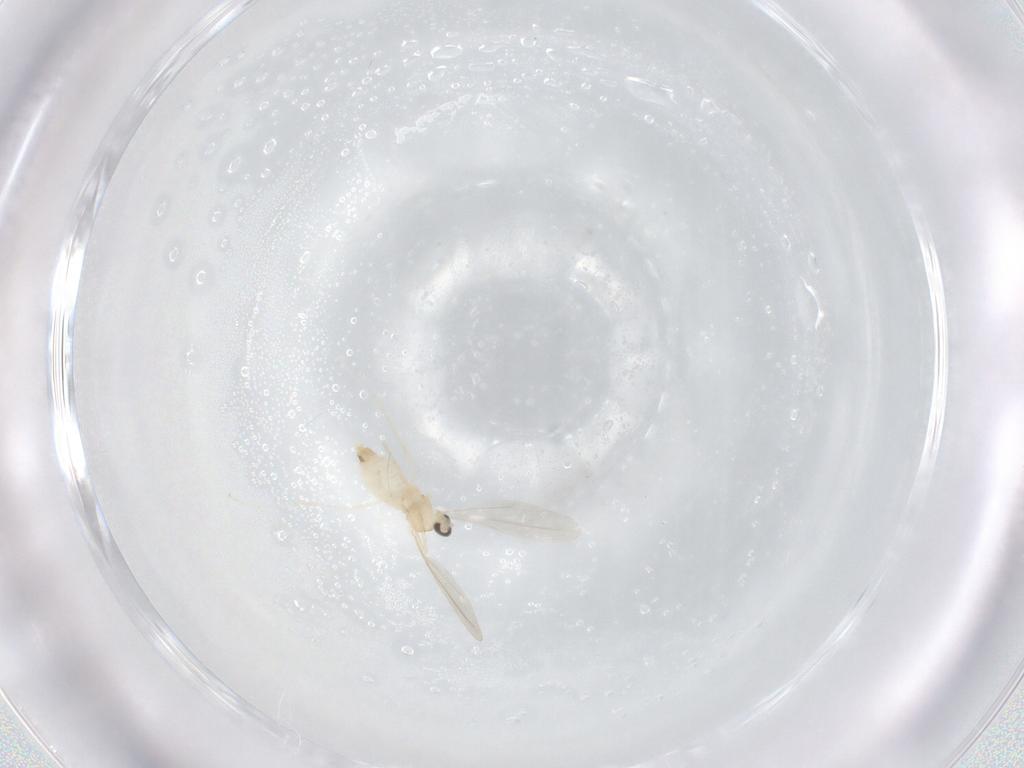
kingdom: Animalia
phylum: Arthropoda
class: Insecta
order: Diptera
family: Cecidomyiidae
